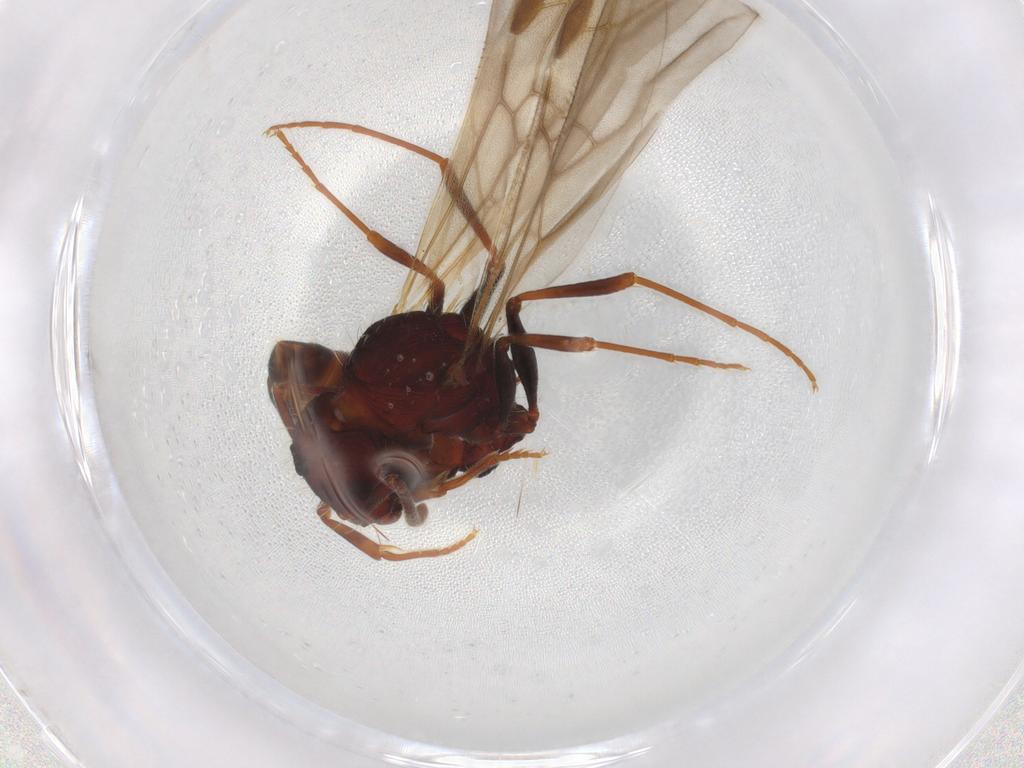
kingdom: Animalia
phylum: Arthropoda
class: Insecta
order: Hymenoptera
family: Formicidae
